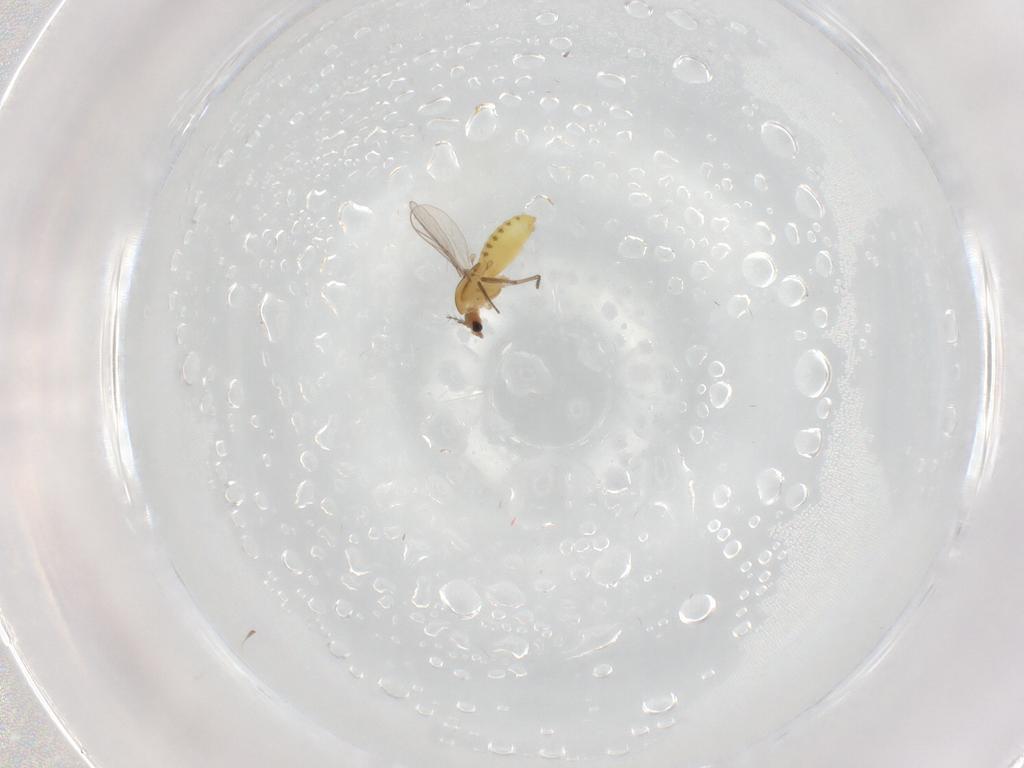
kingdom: Animalia
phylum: Arthropoda
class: Insecta
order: Diptera
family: Chironomidae
